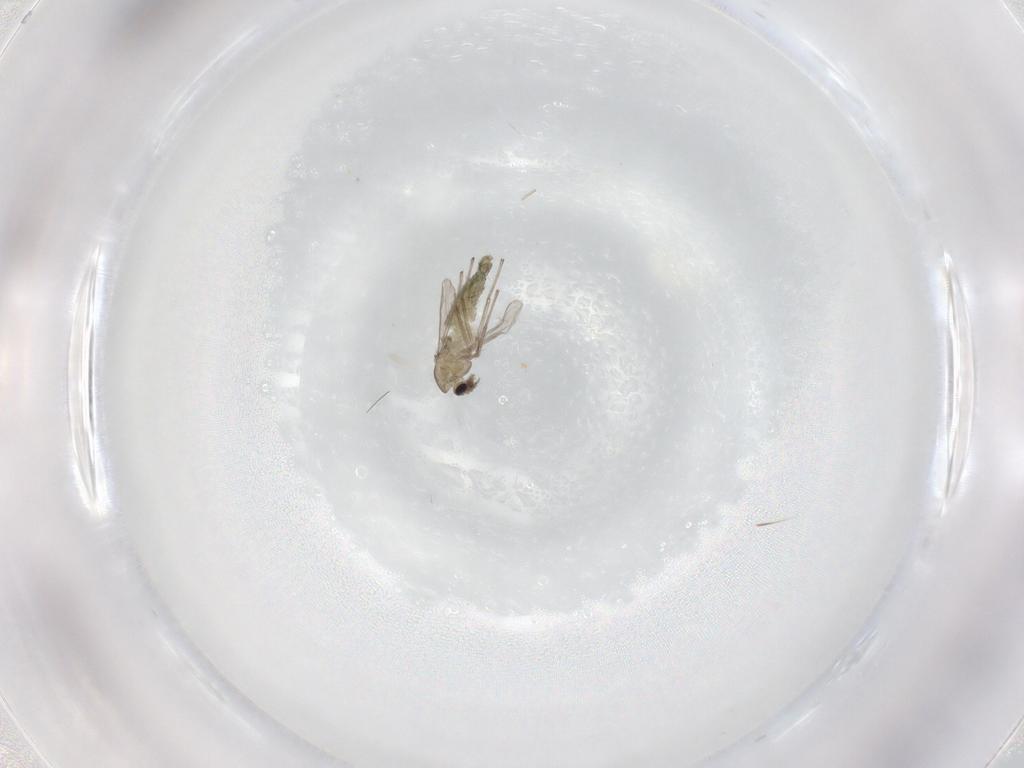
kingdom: Animalia
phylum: Arthropoda
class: Insecta
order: Diptera
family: Chironomidae
